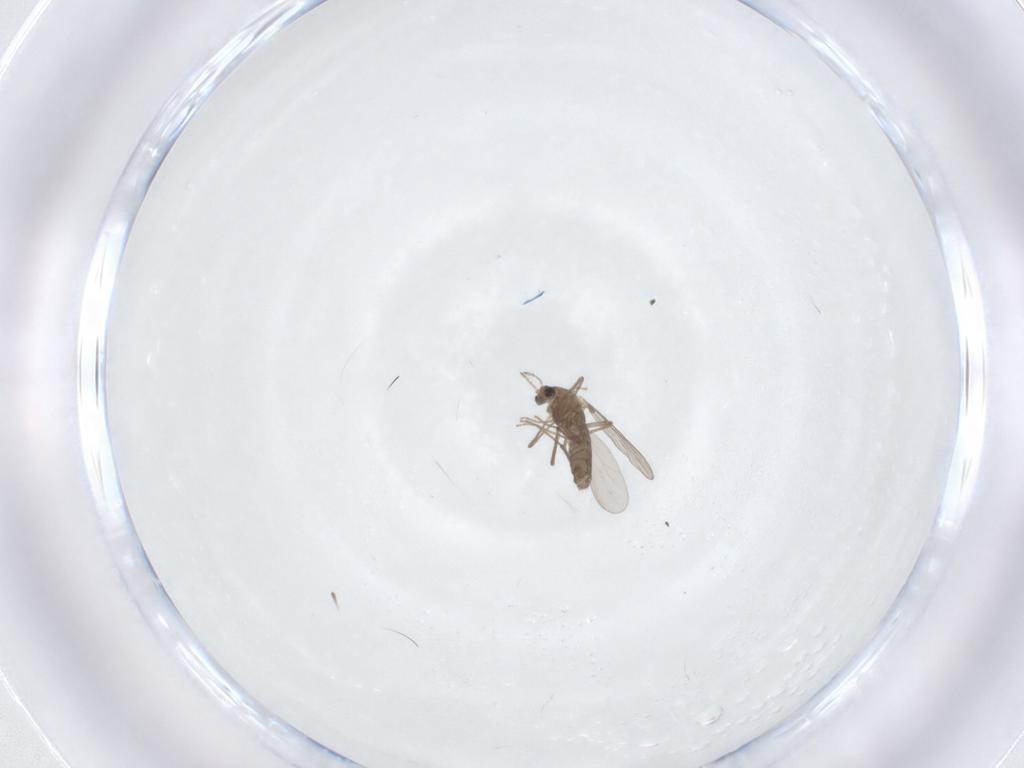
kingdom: Animalia
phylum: Arthropoda
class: Insecta
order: Diptera
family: Chironomidae
